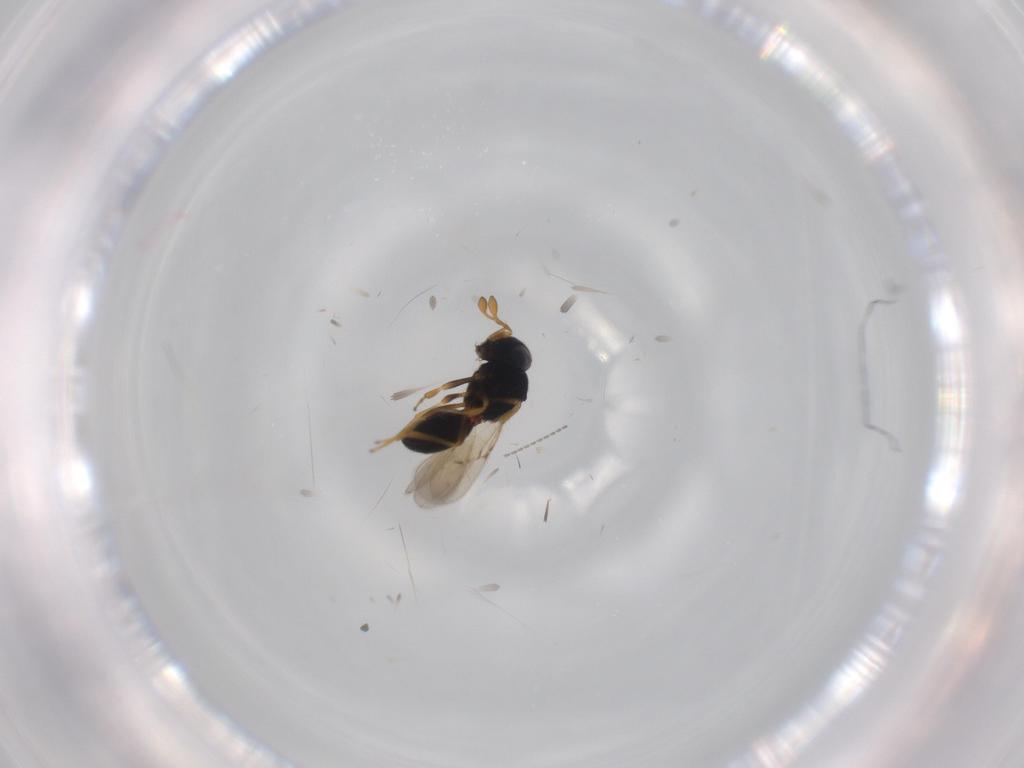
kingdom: Animalia
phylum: Arthropoda
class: Insecta
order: Hymenoptera
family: Scelionidae
